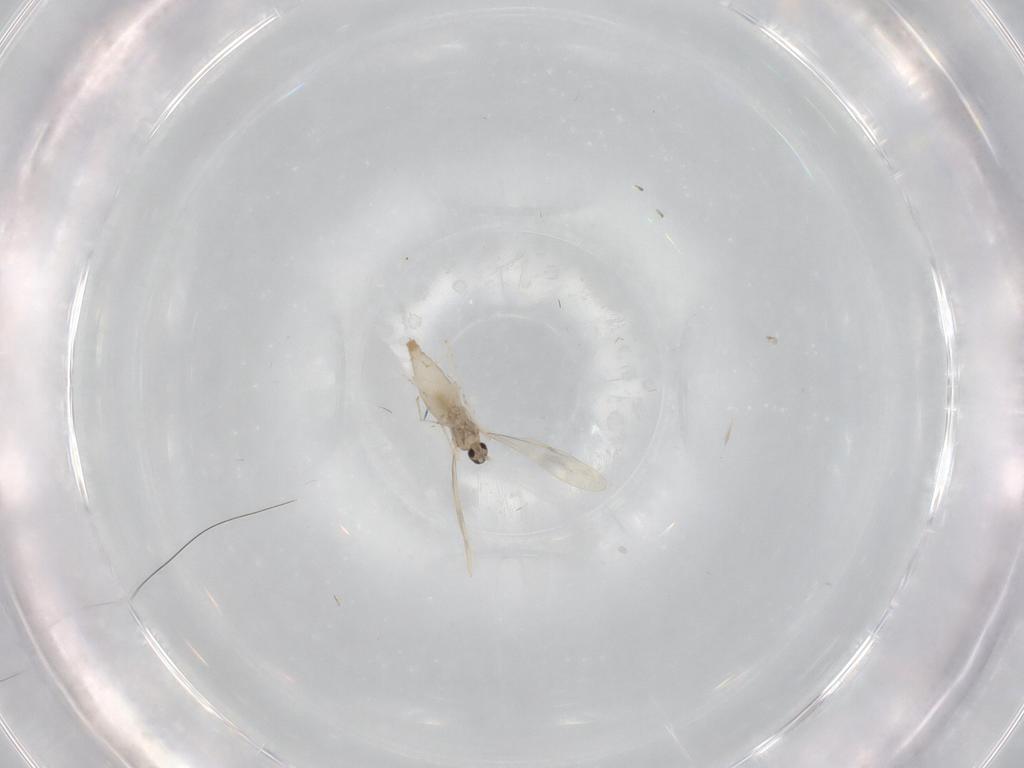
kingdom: Animalia
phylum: Arthropoda
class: Insecta
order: Diptera
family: Cecidomyiidae
